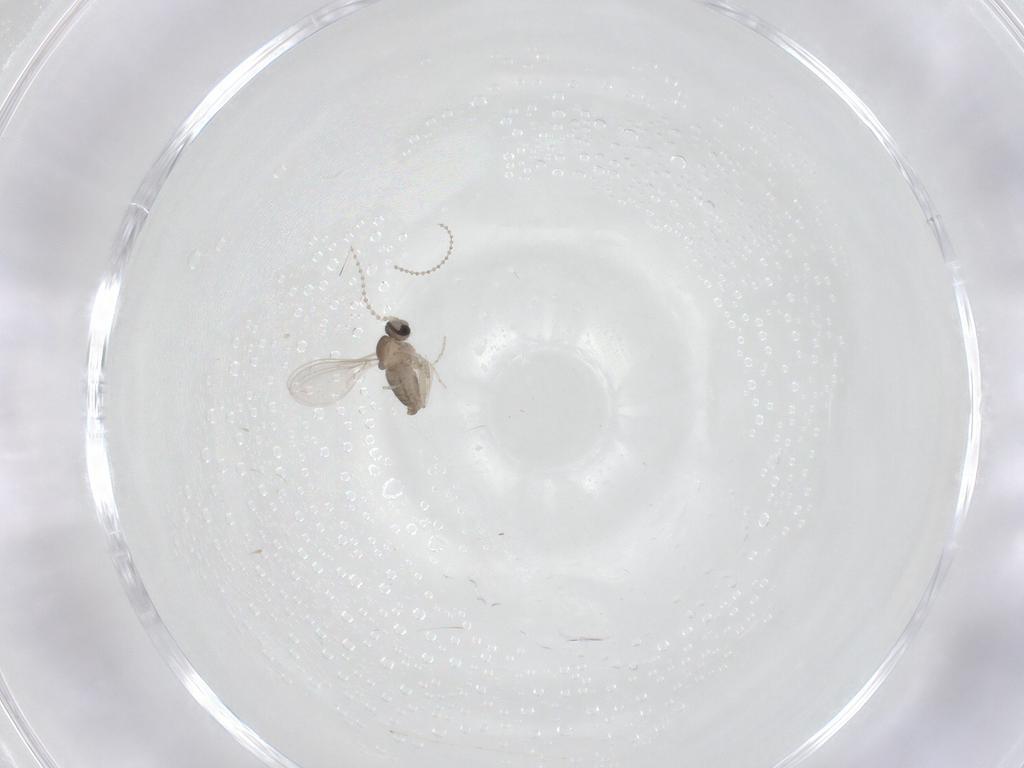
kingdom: Animalia
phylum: Arthropoda
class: Insecta
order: Diptera
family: Cecidomyiidae
